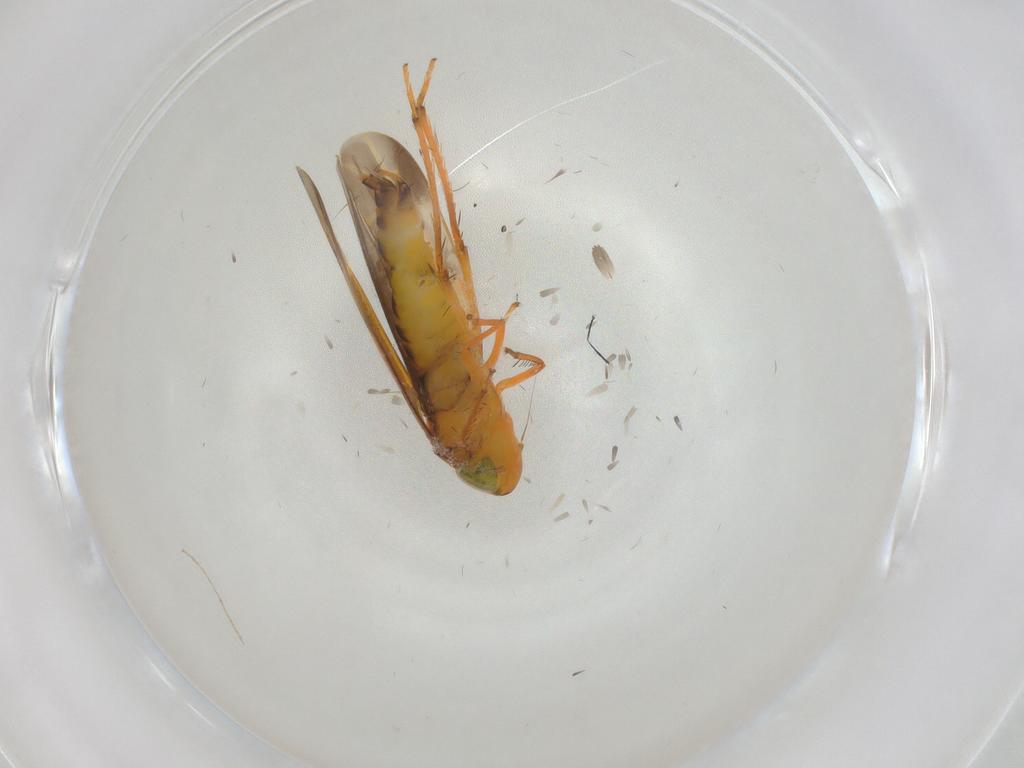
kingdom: Animalia
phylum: Arthropoda
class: Insecta
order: Hemiptera
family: Cicadellidae
